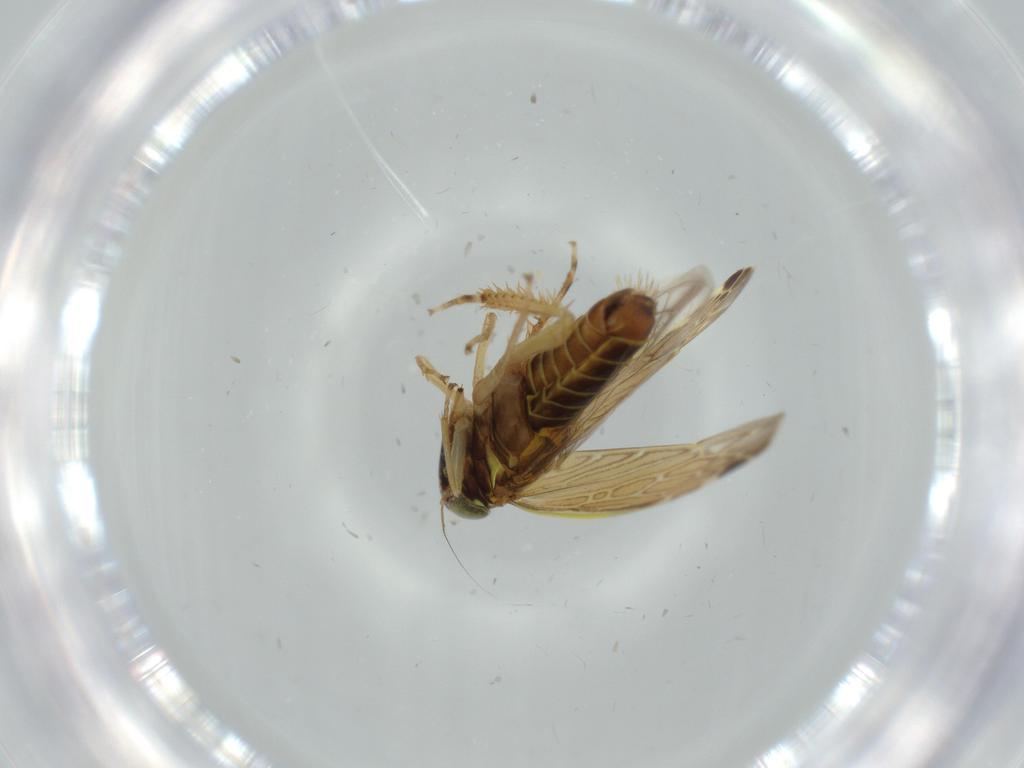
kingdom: Animalia
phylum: Arthropoda
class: Insecta
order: Hemiptera
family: Cicadellidae
